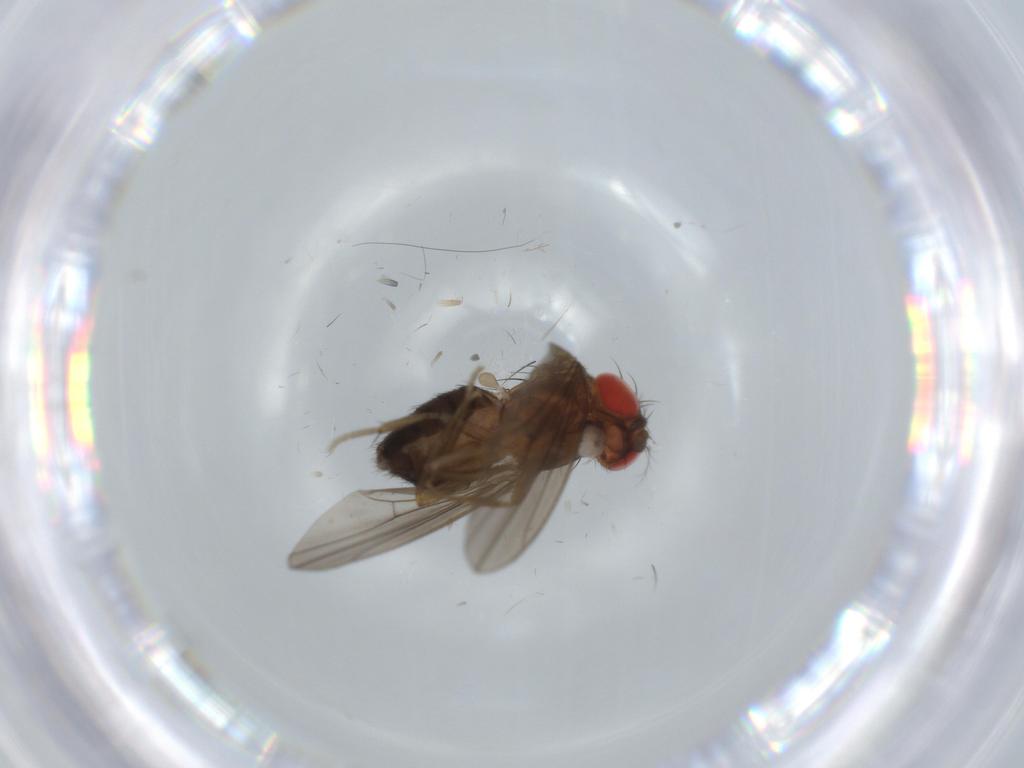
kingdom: Animalia
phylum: Arthropoda
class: Insecta
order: Diptera
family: Drosophilidae
